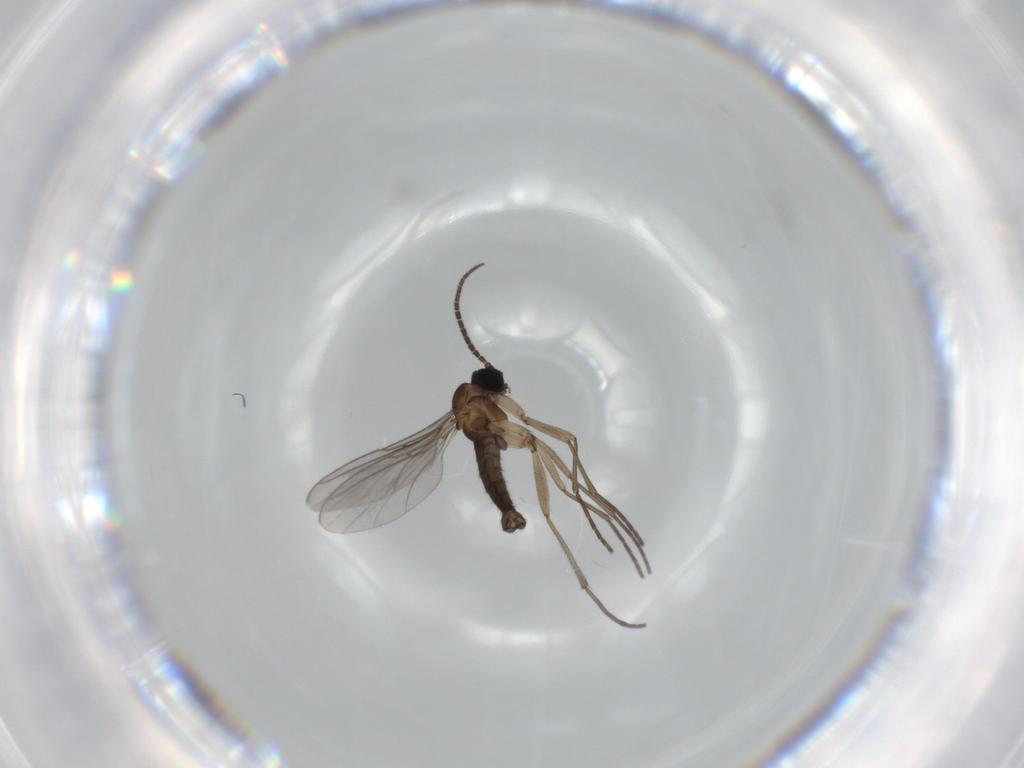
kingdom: Animalia
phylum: Arthropoda
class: Insecta
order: Diptera
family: Sciaridae
